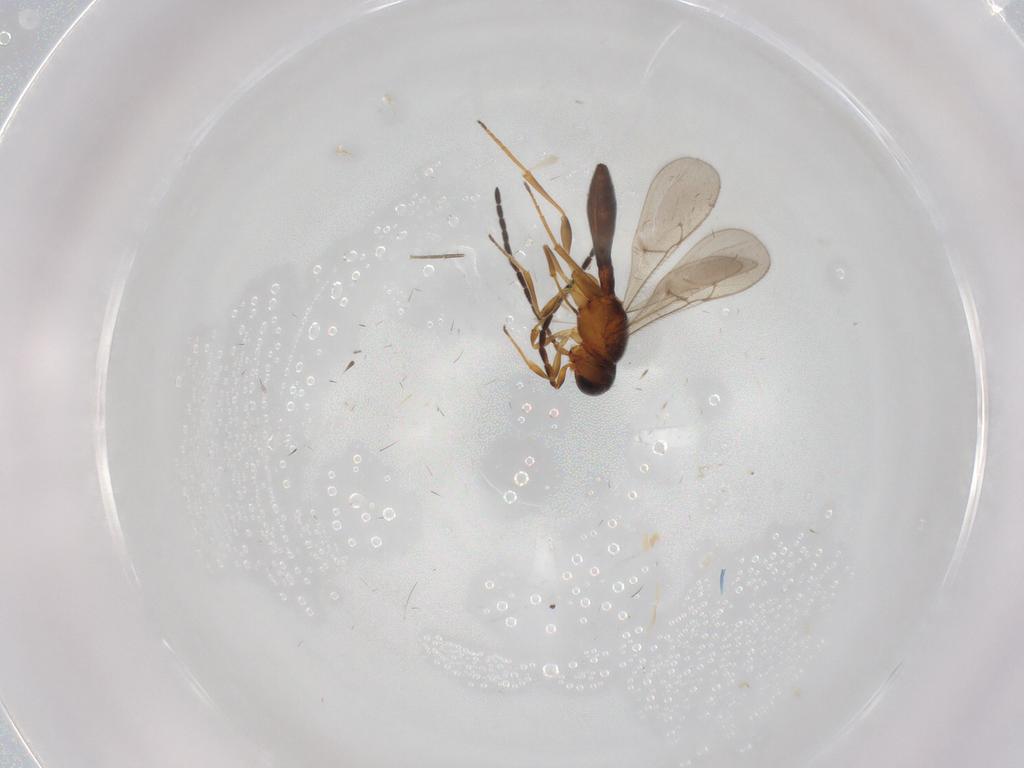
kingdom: Animalia
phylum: Arthropoda
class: Insecta
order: Hymenoptera
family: Scelionidae
